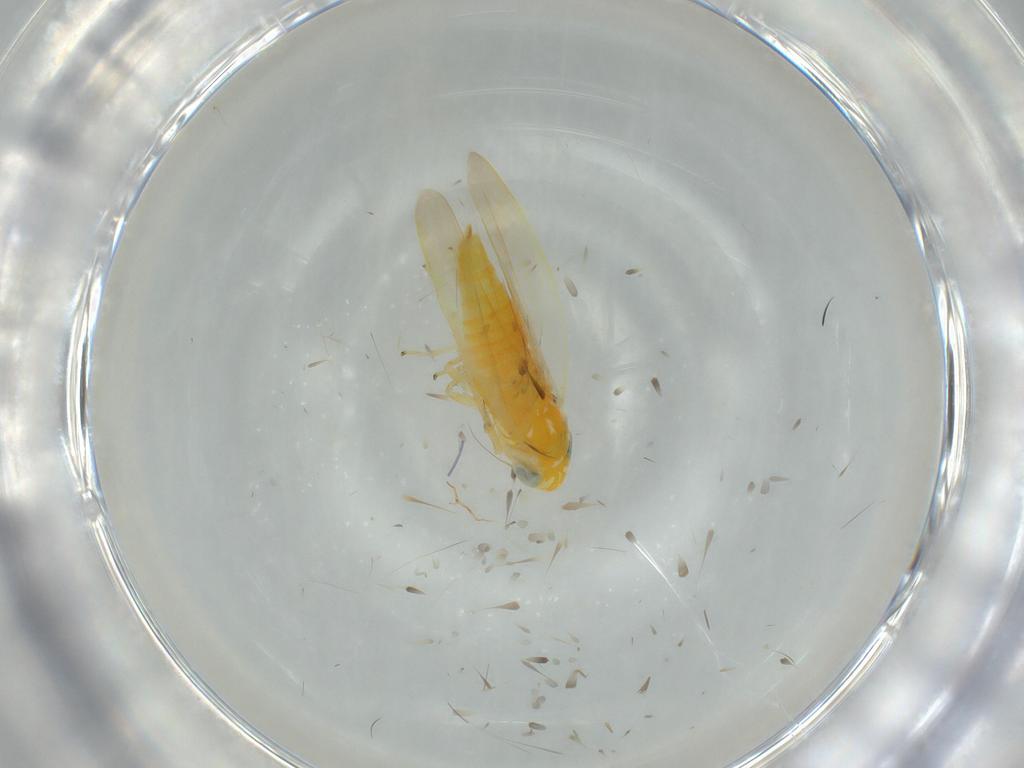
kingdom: Animalia
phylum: Arthropoda
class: Insecta
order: Hemiptera
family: Cicadellidae
